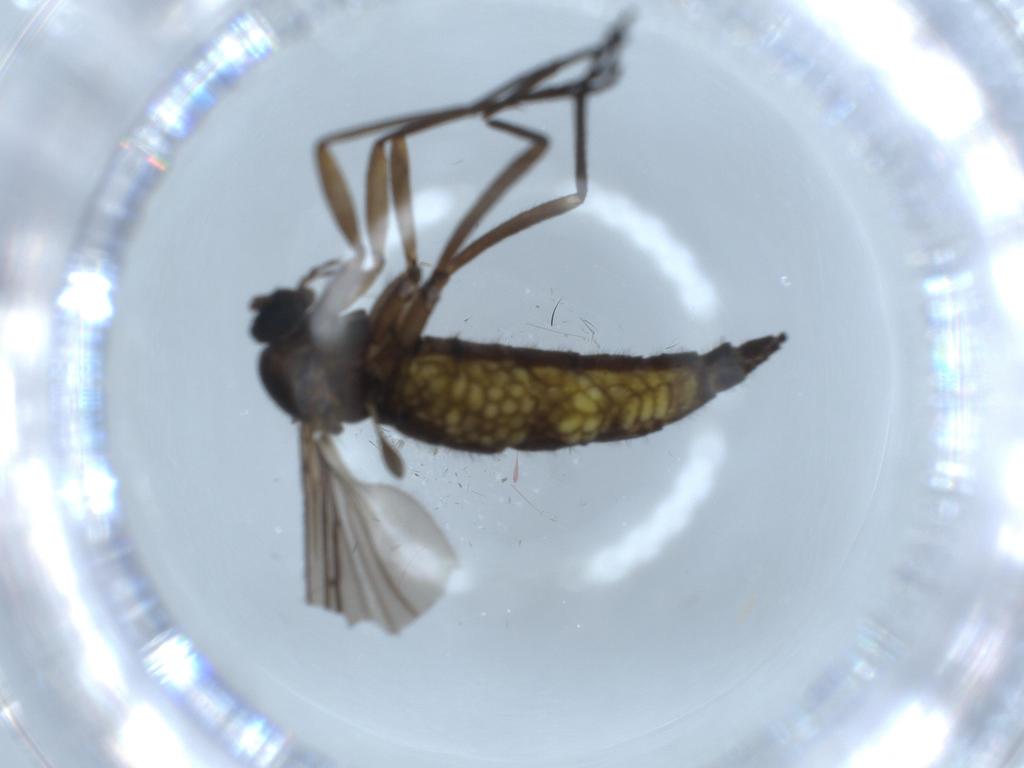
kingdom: Animalia
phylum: Arthropoda
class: Insecta
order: Diptera
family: Sciaridae
